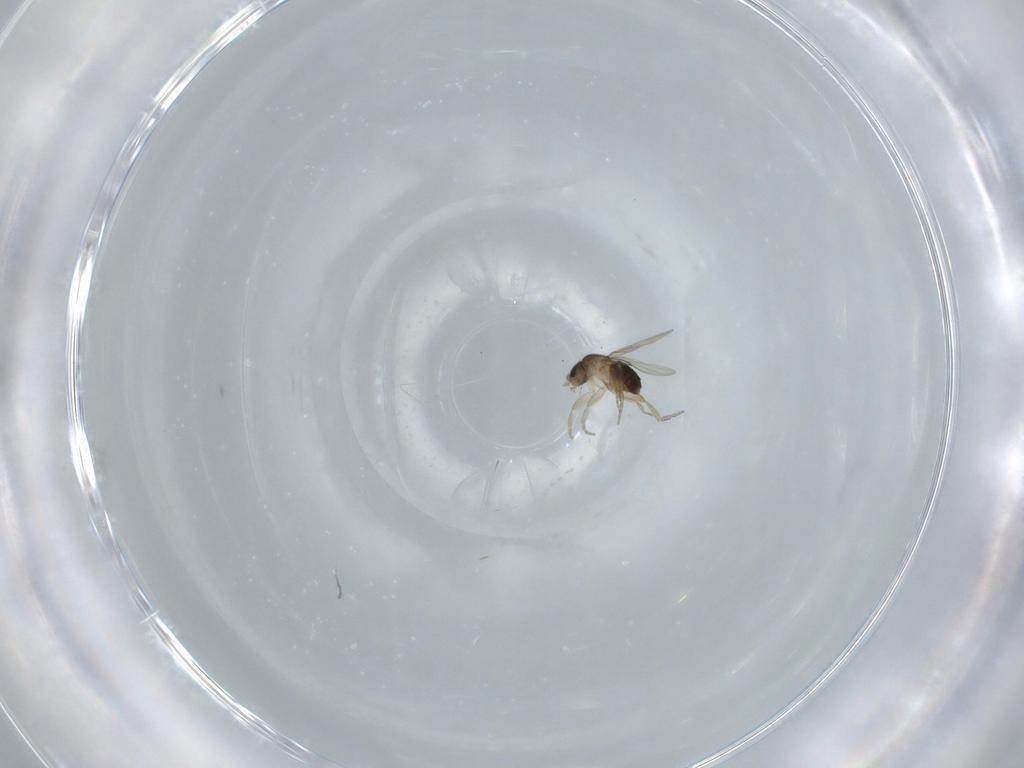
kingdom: Animalia
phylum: Arthropoda
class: Insecta
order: Diptera
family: Phoridae
